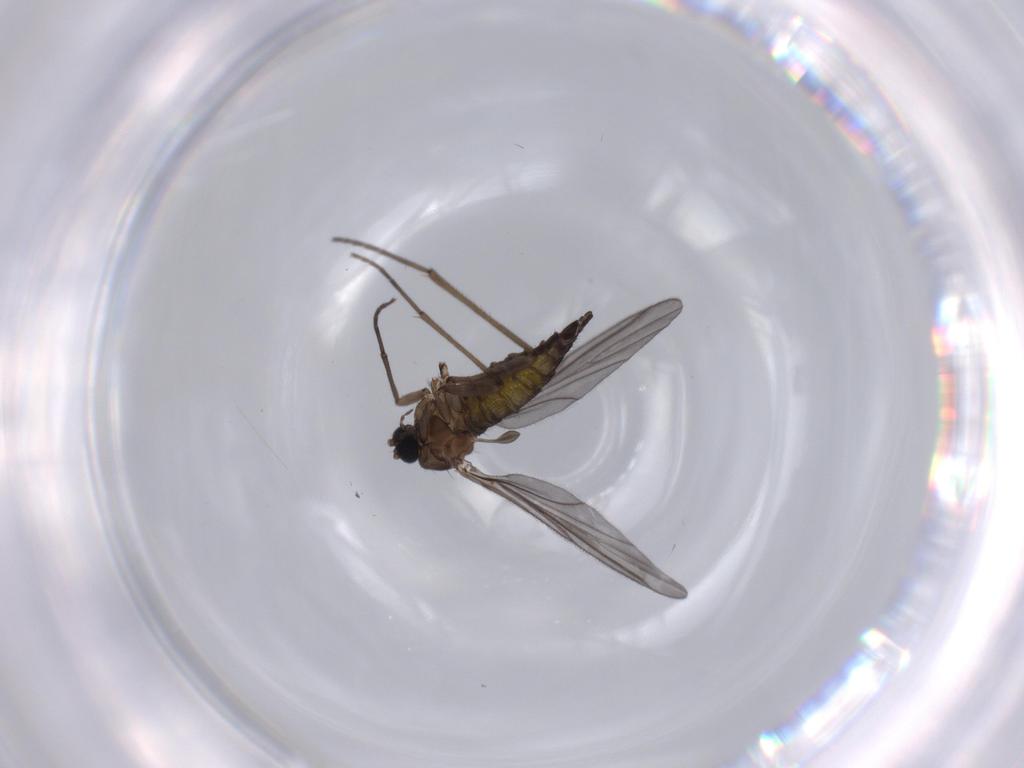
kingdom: Animalia
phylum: Arthropoda
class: Insecta
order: Diptera
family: Sciaridae
